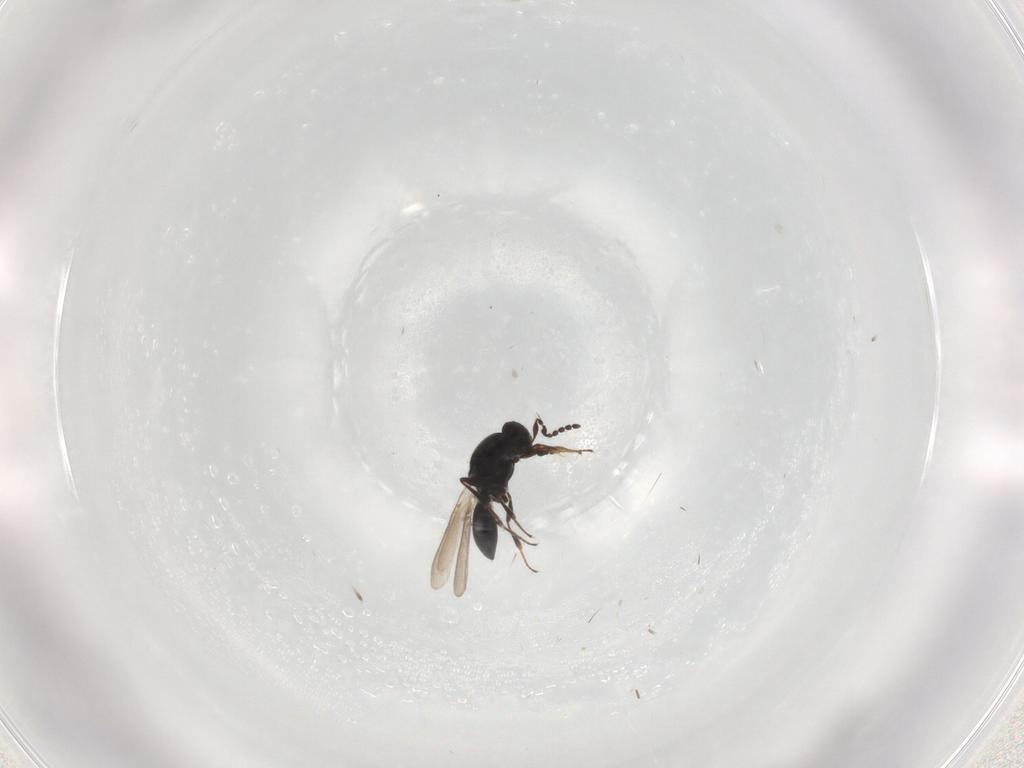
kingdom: Animalia
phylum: Arthropoda
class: Insecta
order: Hymenoptera
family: Platygastridae
